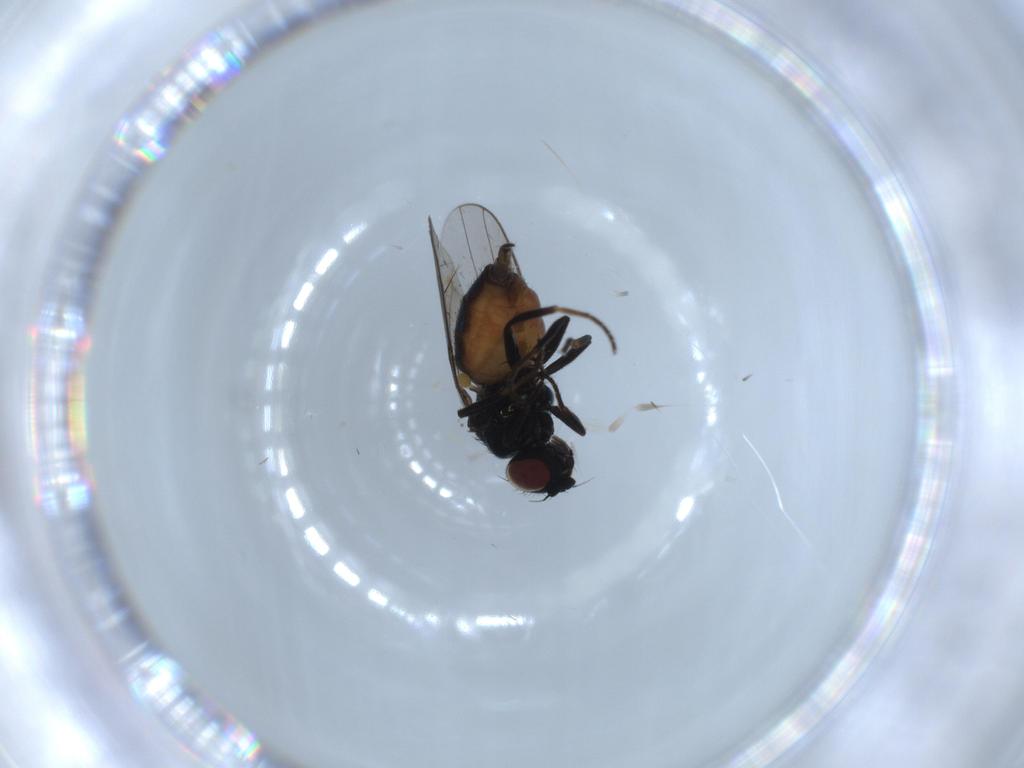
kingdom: Animalia
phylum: Arthropoda
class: Insecta
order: Diptera
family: Chloropidae
